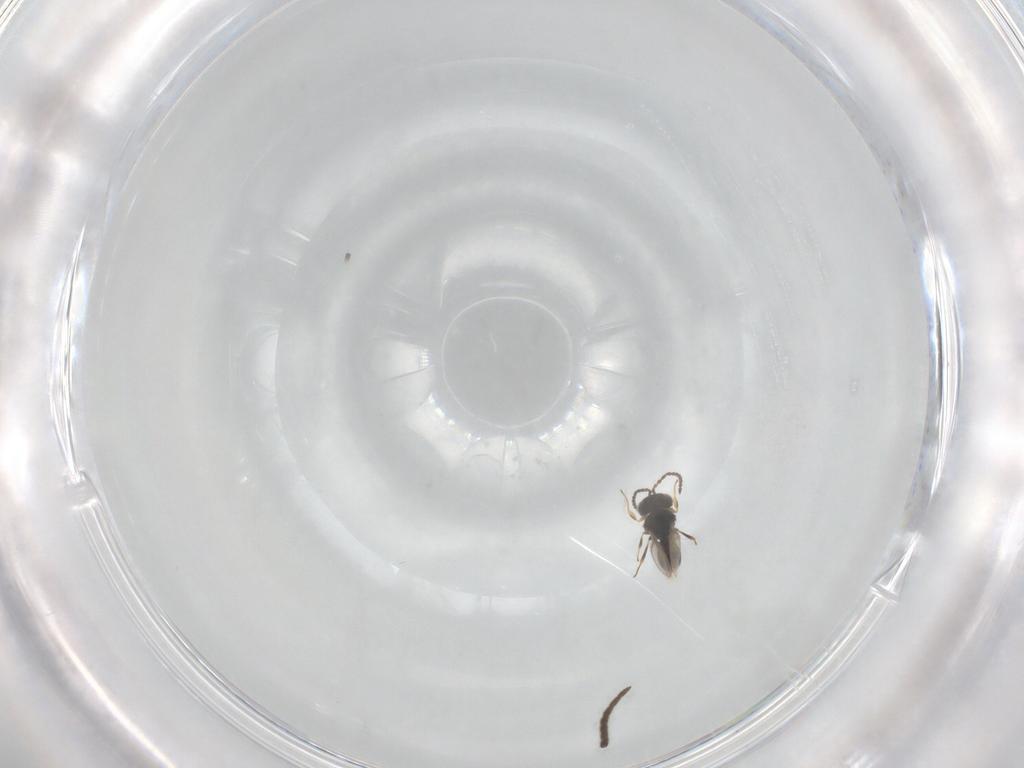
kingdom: Animalia
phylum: Arthropoda
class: Insecta
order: Hymenoptera
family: Scelionidae
